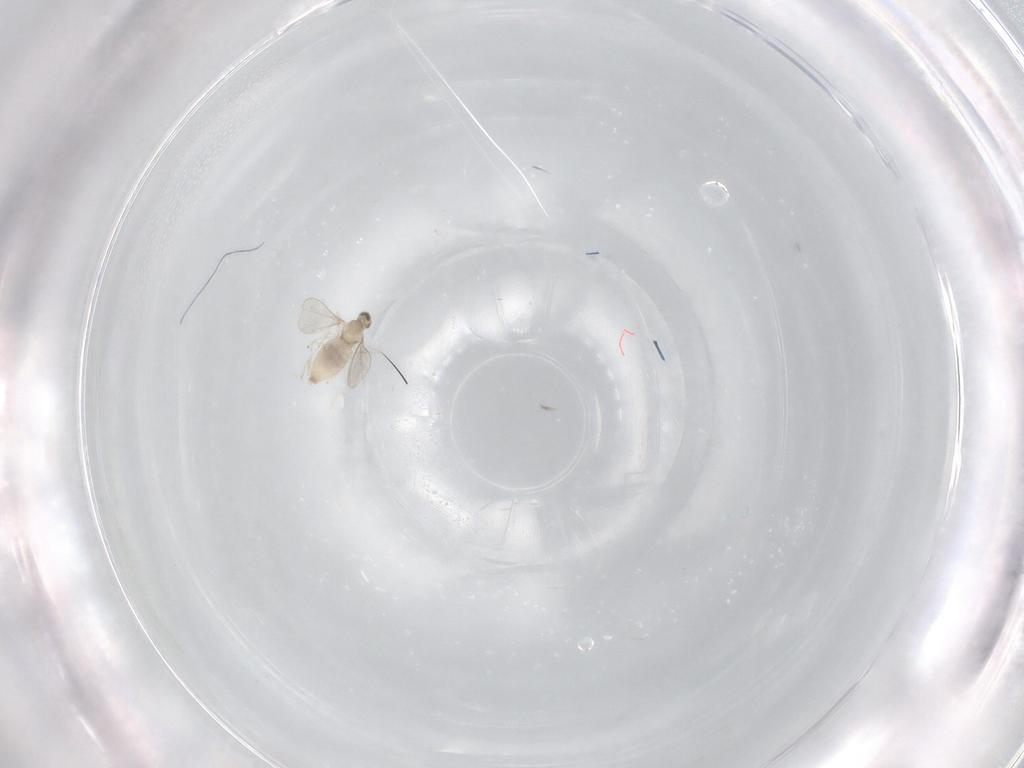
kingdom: Animalia
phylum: Arthropoda
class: Insecta
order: Diptera
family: Cecidomyiidae
